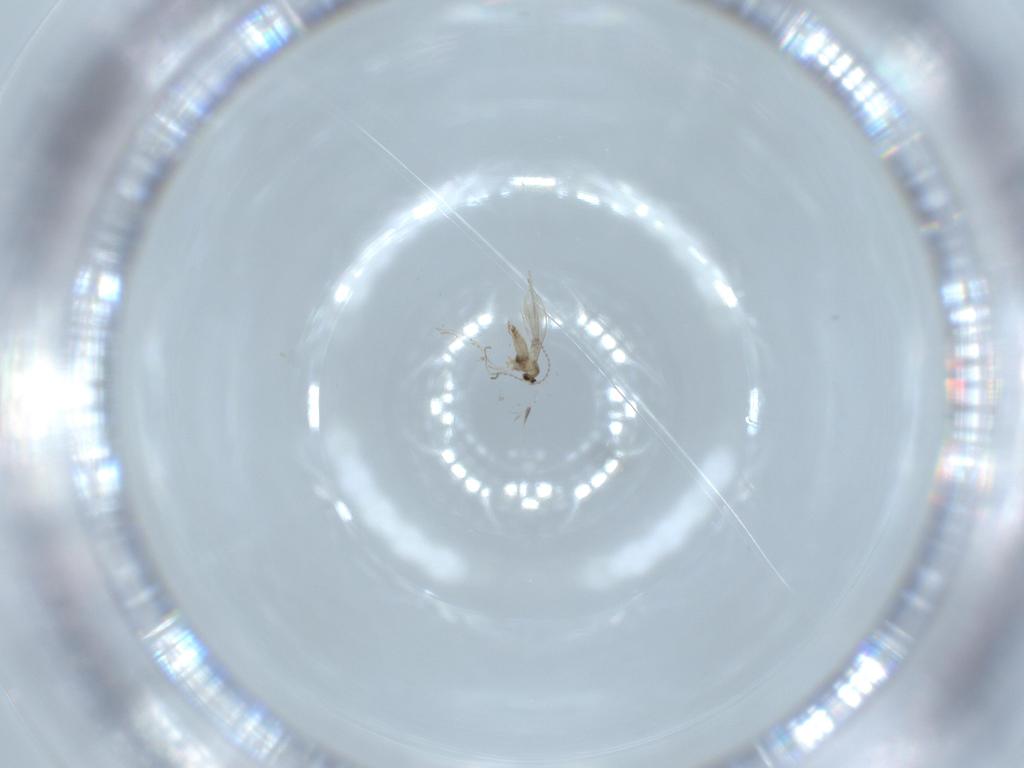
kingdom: Animalia
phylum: Arthropoda
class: Insecta
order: Diptera
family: Cecidomyiidae
